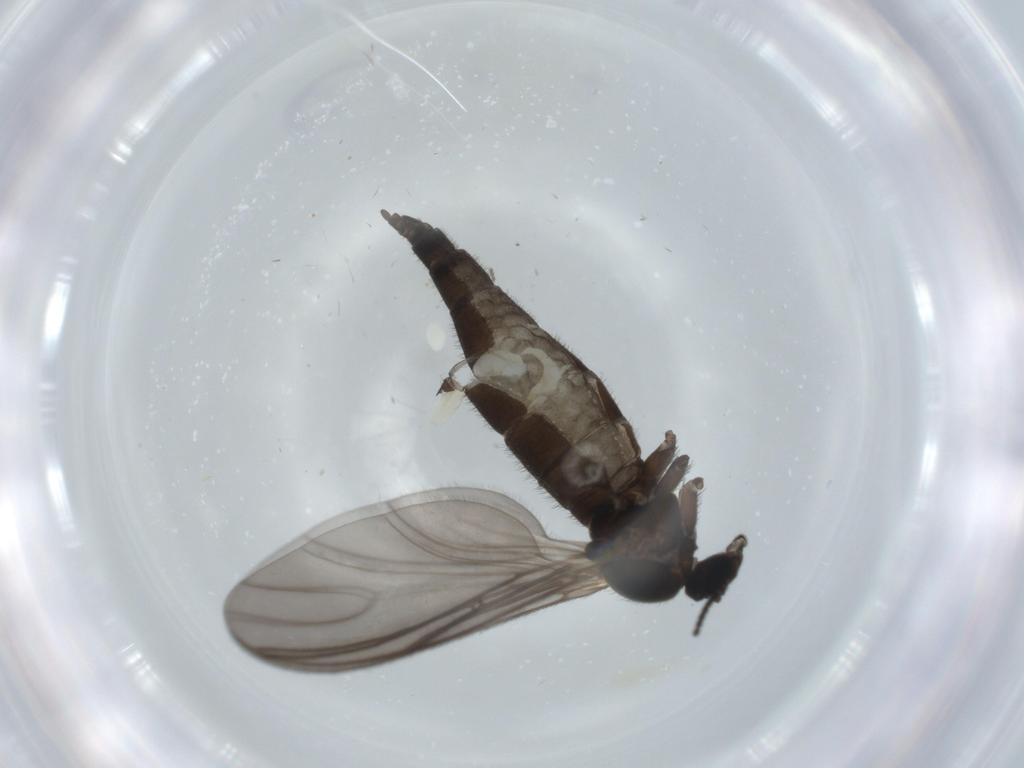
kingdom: Animalia
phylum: Arthropoda
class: Insecta
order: Diptera
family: Sciaridae
